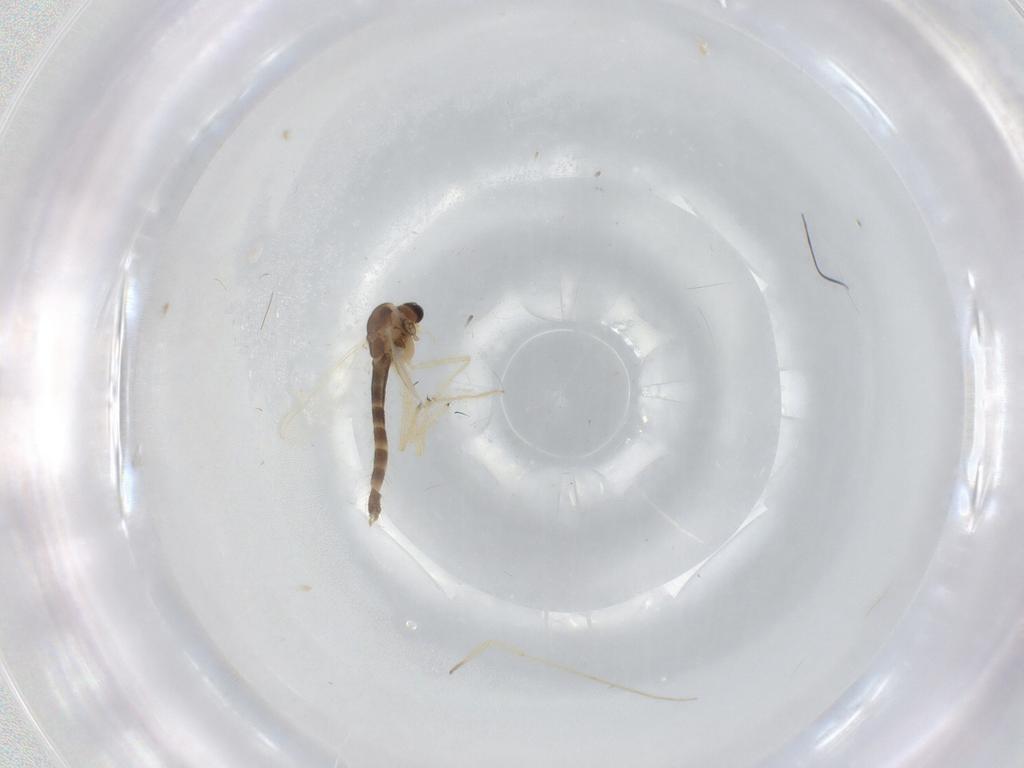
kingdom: Animalia
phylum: Arthropoda
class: Insecta
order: Diptera
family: Chironomidae
